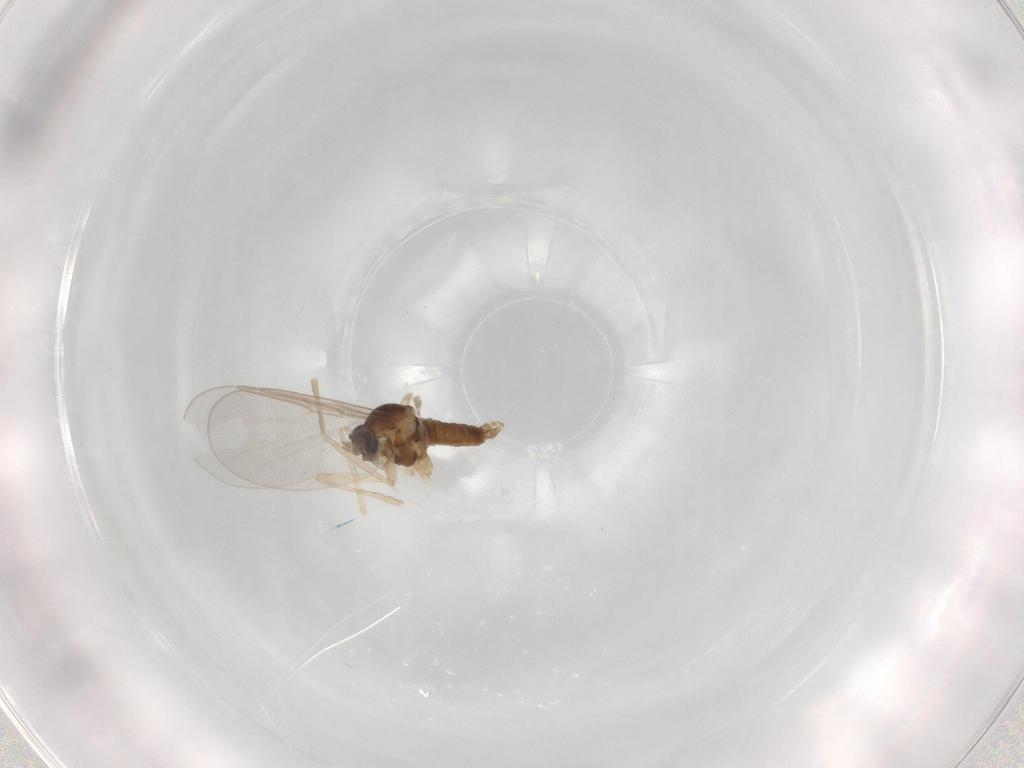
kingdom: Animalia
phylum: Arthropoda
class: Insecta
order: Diptera
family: Cecidomyiidae
